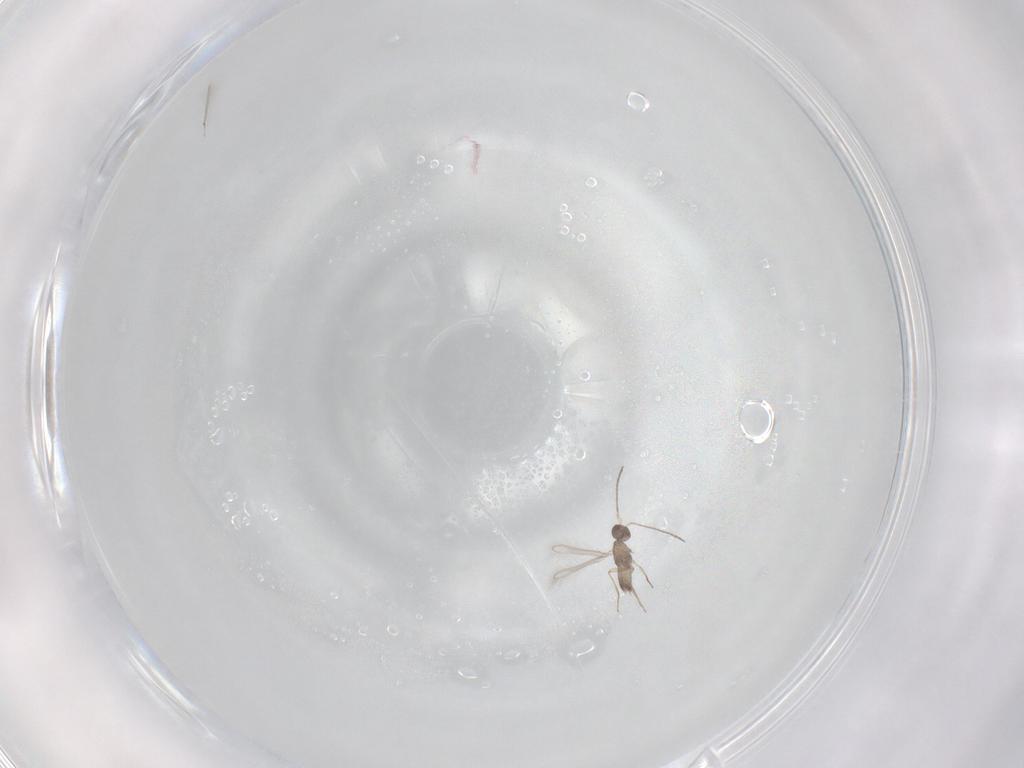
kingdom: Animalia
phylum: Arthropoda
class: Insecta
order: Hymenoptera
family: Mymaridae
